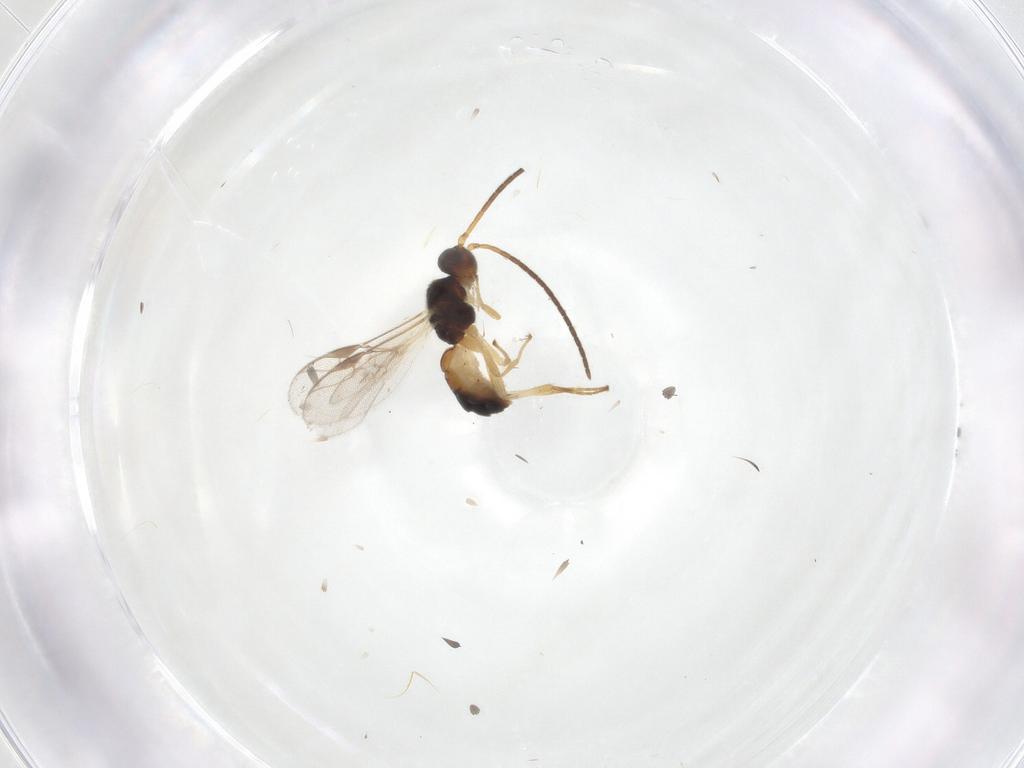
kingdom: Animalia
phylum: Arthropoda
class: Insecta
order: Hymenoptera
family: Braconidae
